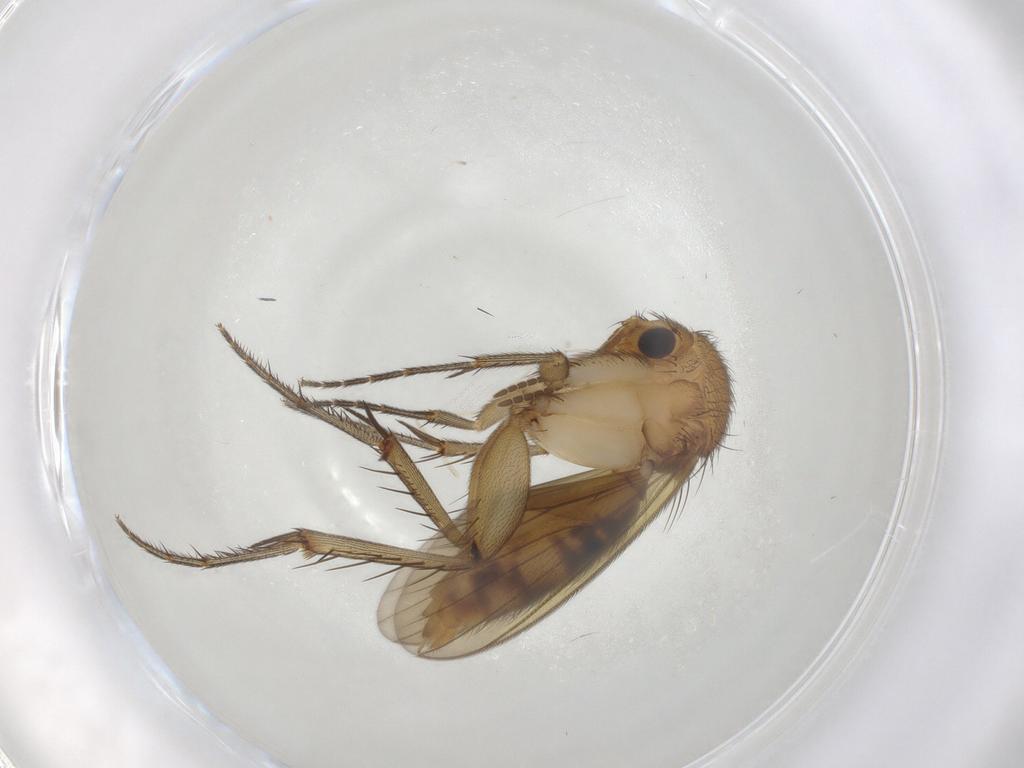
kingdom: Animalia
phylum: Arthropoda
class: Insecta
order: Diptera
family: Mycetophilidae
